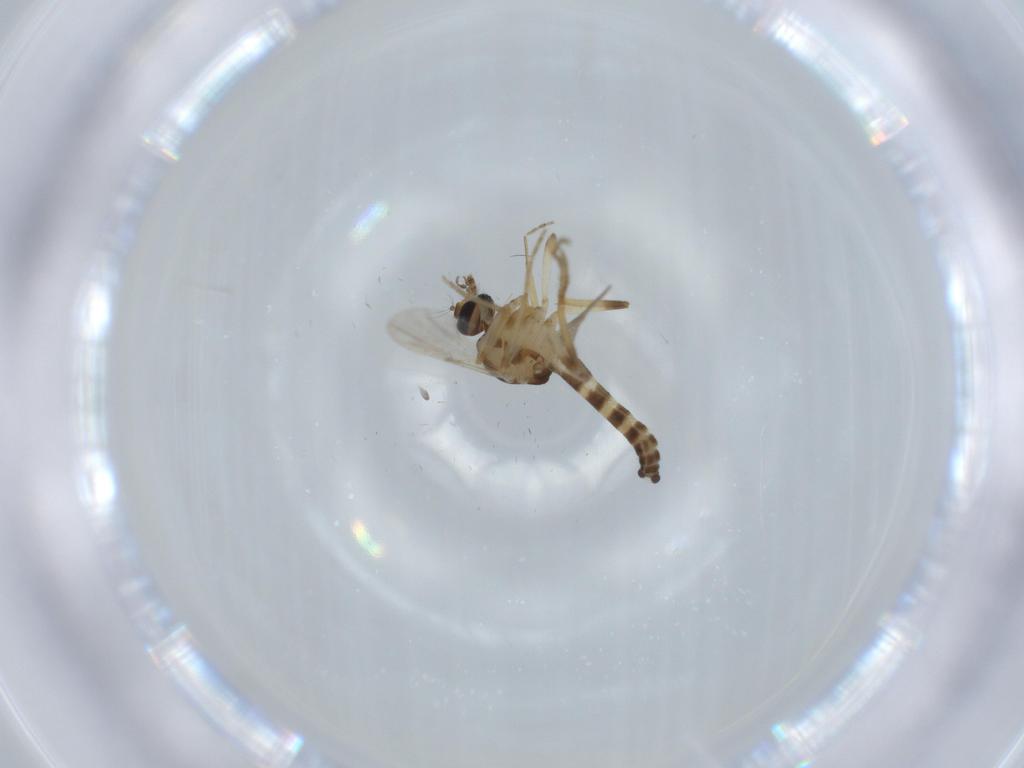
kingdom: Animalia
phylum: Arthropoda
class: Insecta
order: Diptera
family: Ceratopogonidae
